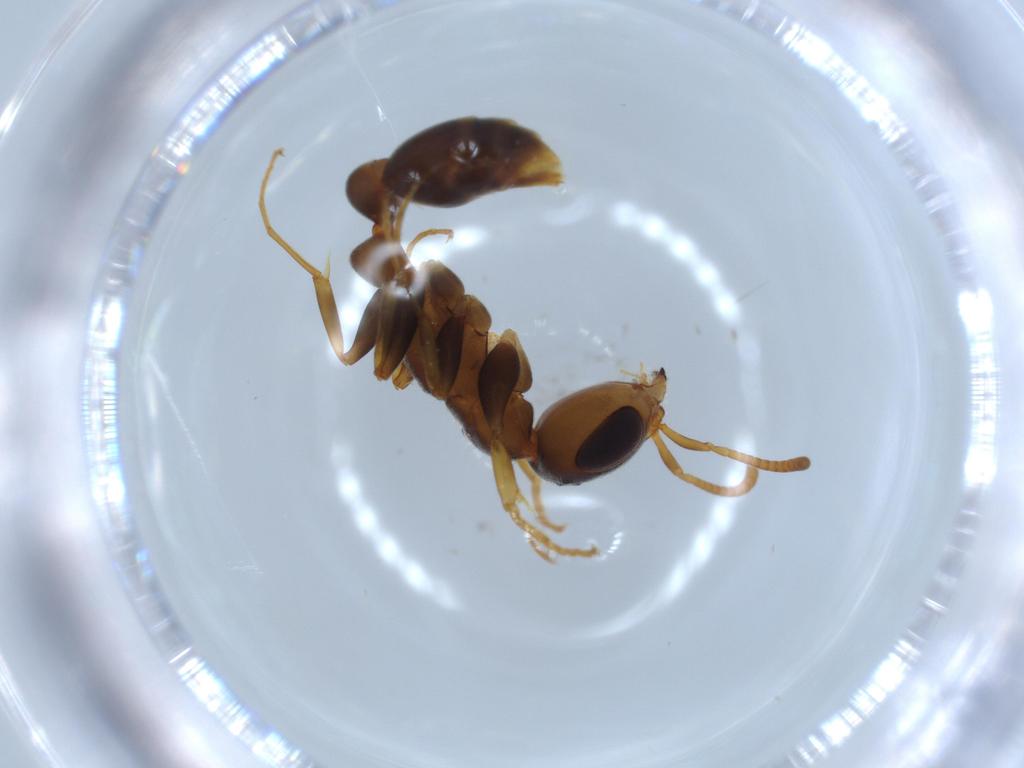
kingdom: Animalia
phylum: Arthropoda
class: Insecta
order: Hymenoptera
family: Formicidae
